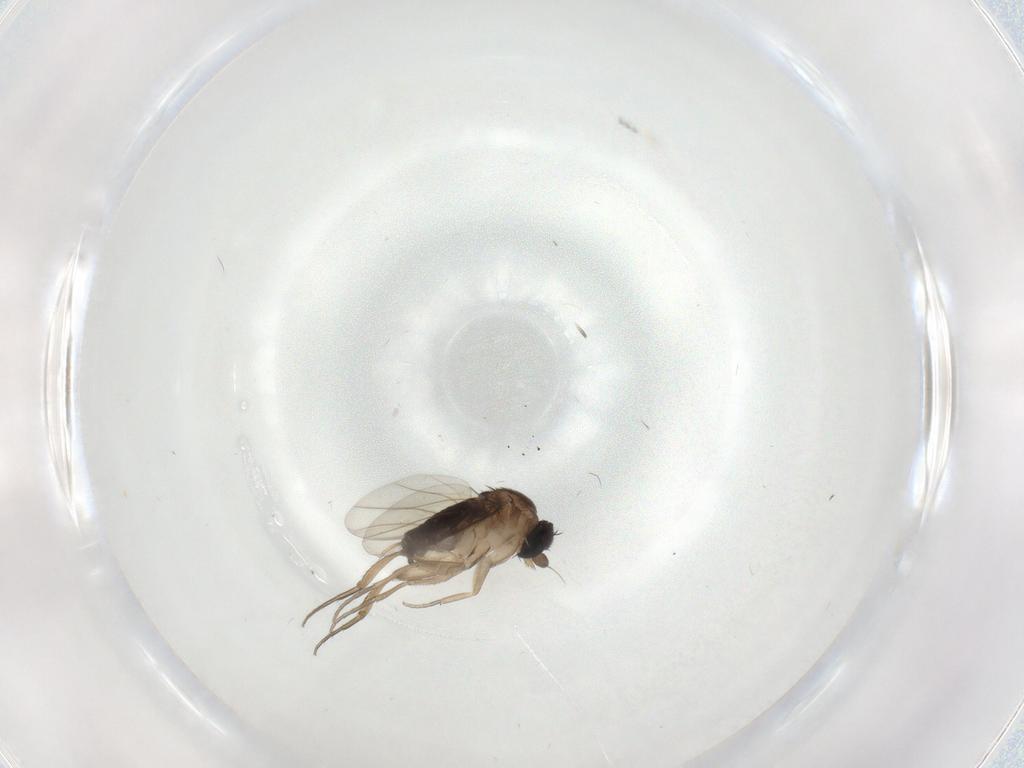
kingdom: Animalia
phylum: Arthropoda
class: Insecta
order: Diptera
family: Phoridae
